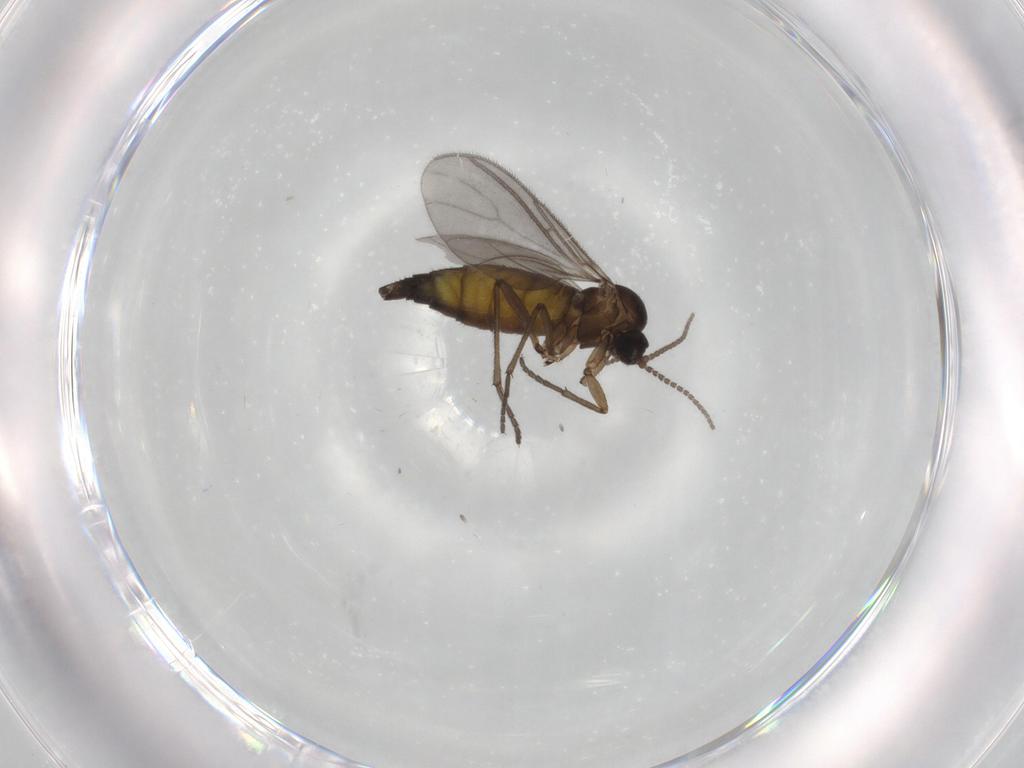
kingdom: Animalia
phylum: Arthropoda
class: Insecta
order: Diptera
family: Sciaridae
